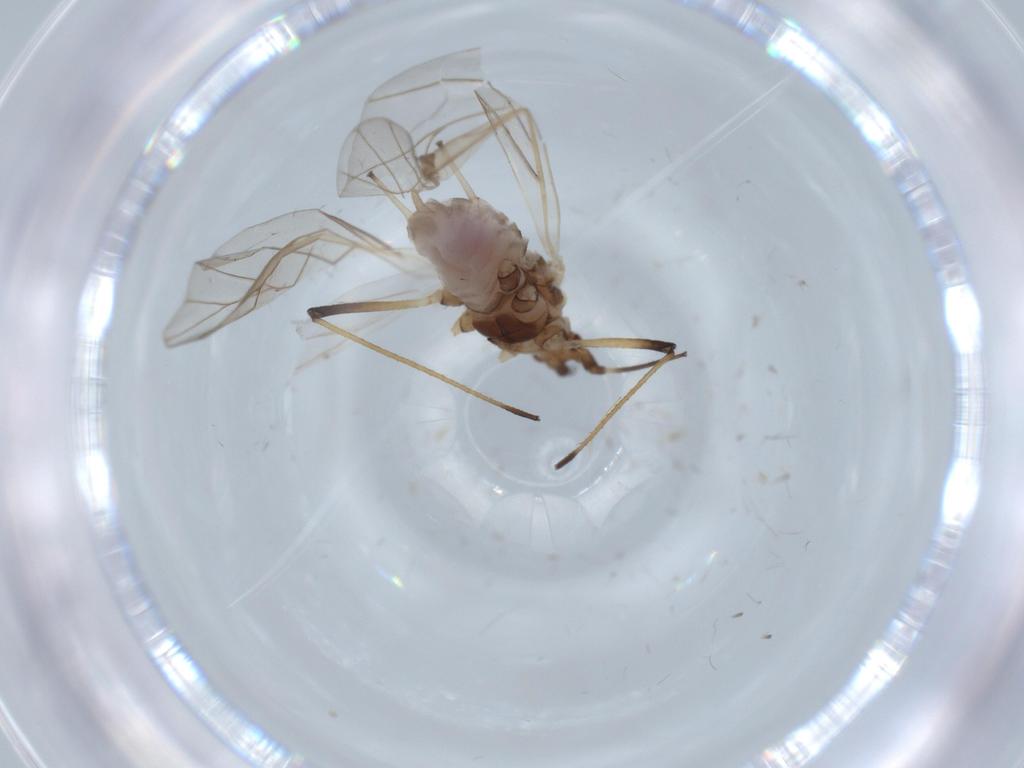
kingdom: Animalia
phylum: Arthropoda
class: Insecta
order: Hemiptera
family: Aphididae
